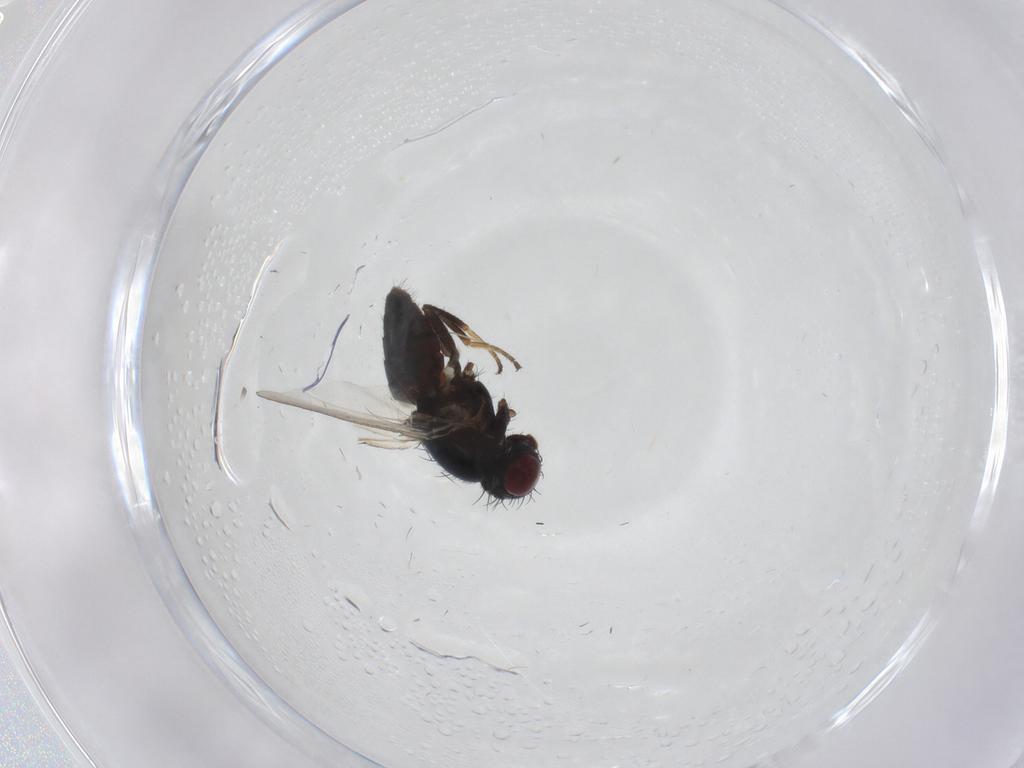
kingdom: Animalia
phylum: Arthropoda
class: Insecta
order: Diptera
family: Carnidae
